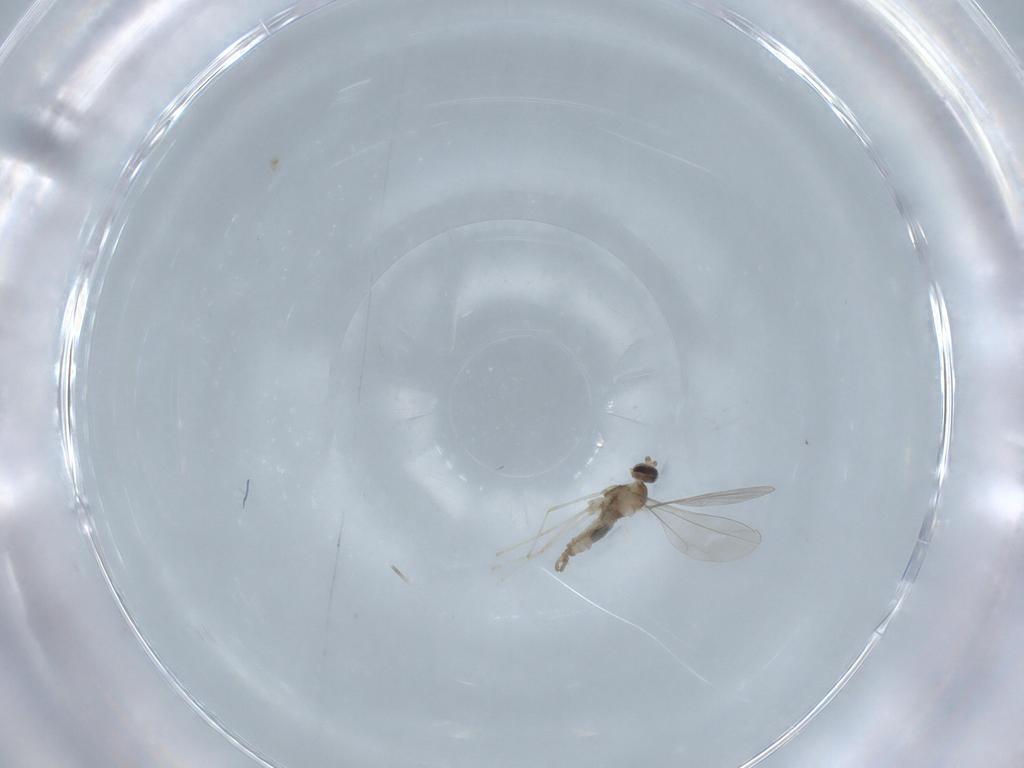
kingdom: Animalia
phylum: Arthropoda
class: Insecta
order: Diptera
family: Cecidomyiidae
